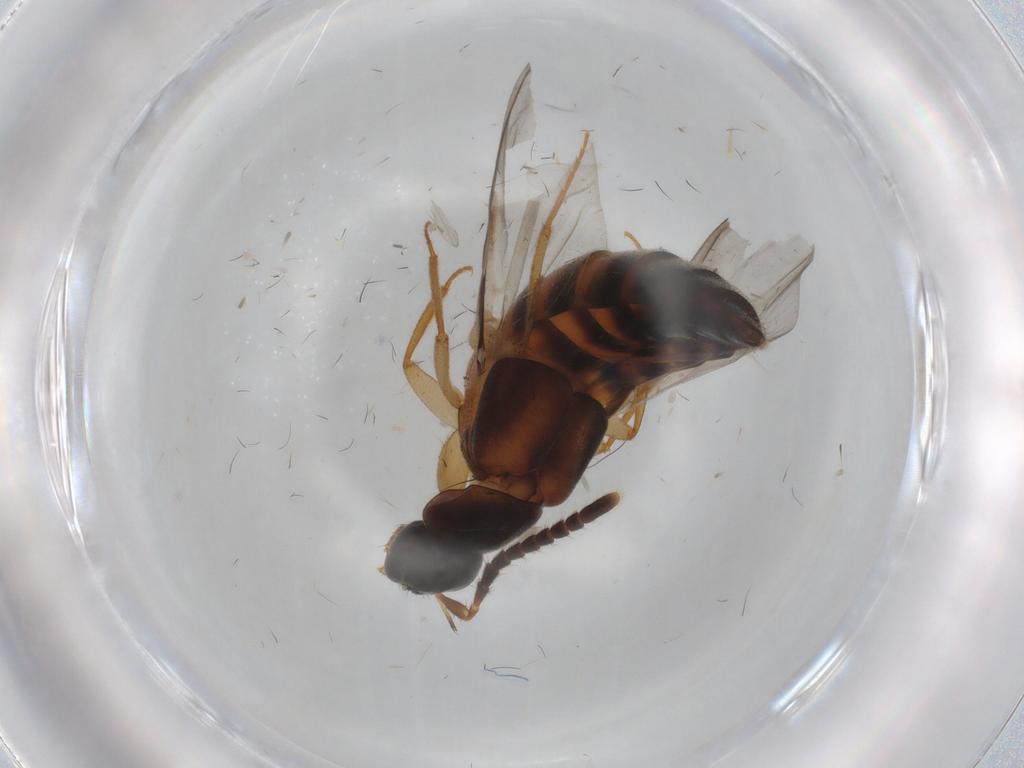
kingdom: Animalia
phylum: Arthropoda
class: Insecta
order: Coleoptera
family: Staphylinidae
